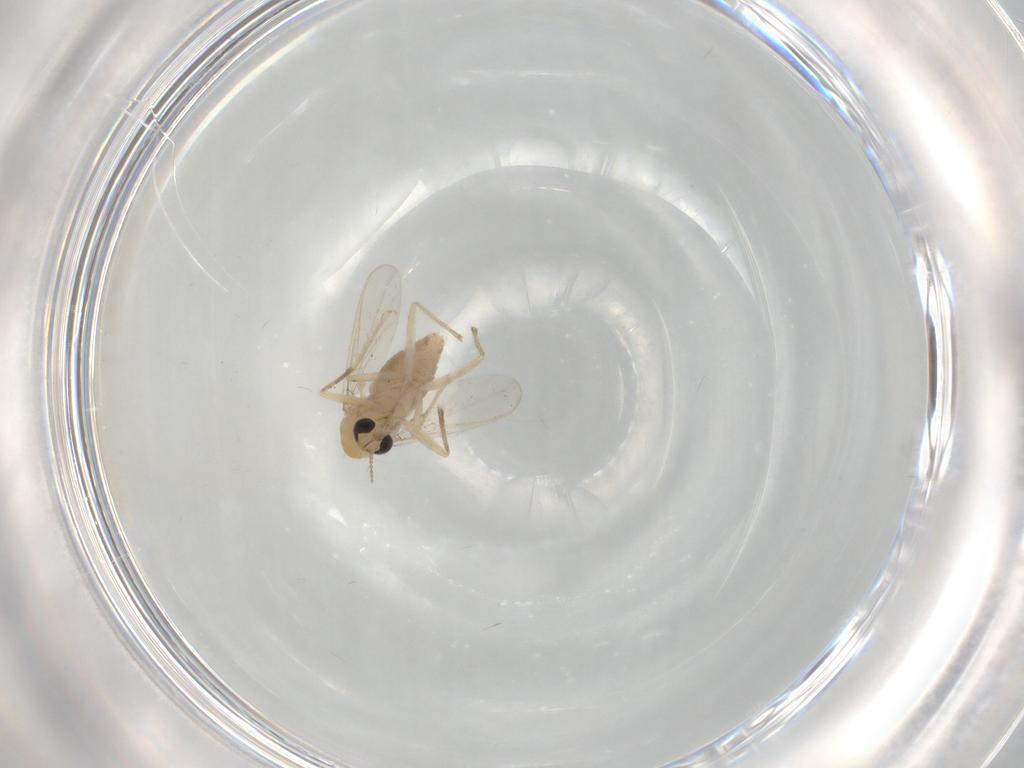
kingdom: Animalia
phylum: Arthropoda
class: Insecta
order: Diptera
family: Chironomidae
